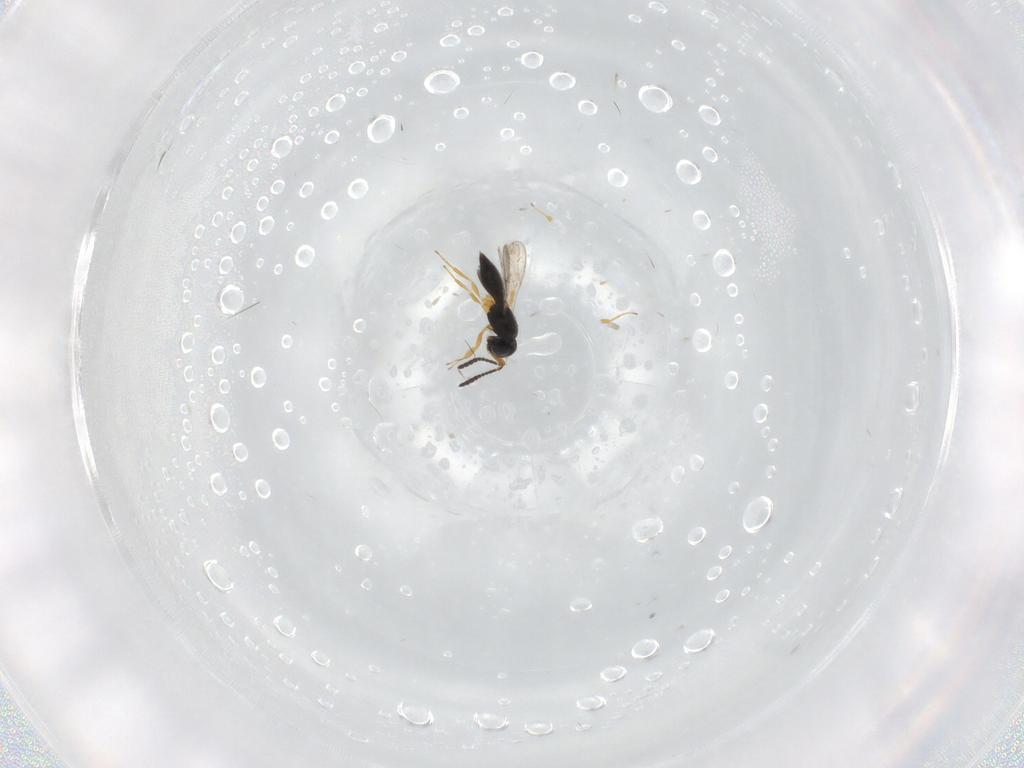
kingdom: Animalia
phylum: Arthropoda
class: Insecta
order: Hymenoptera
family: Scelionidae
